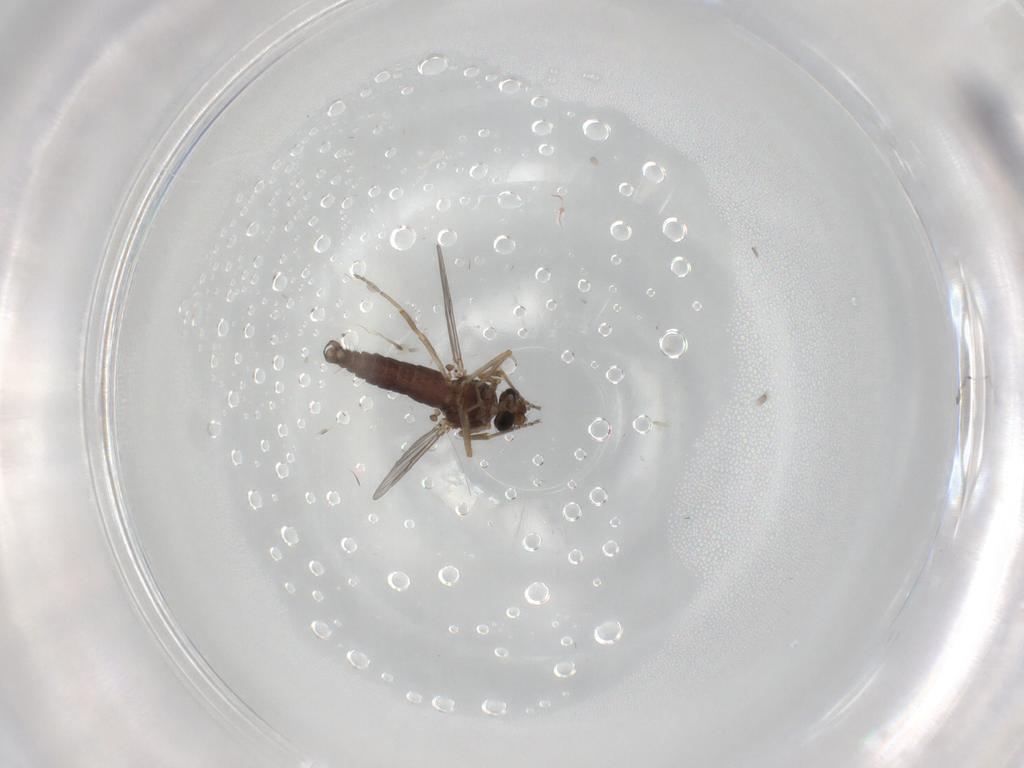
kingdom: Animalia
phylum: Arthropoda
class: Insecta
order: Diptera
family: Ceratopogonidae
